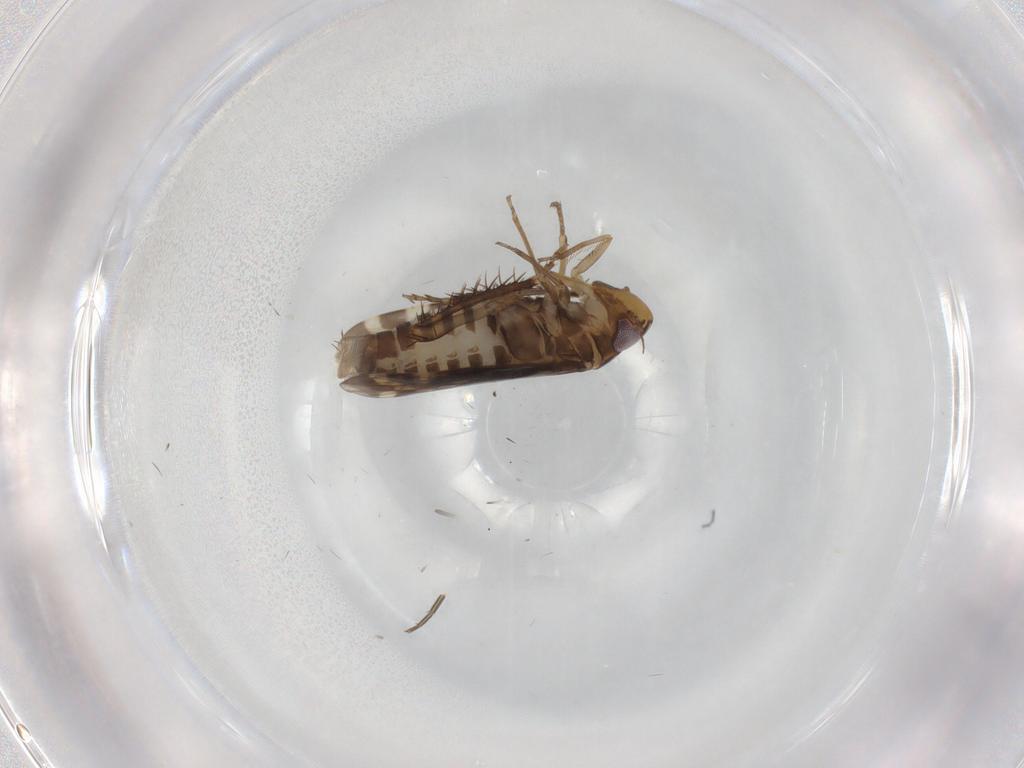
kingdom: Animalia
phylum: Arthropoda
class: Insecta
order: Hemiptera
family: Cicadellidae
